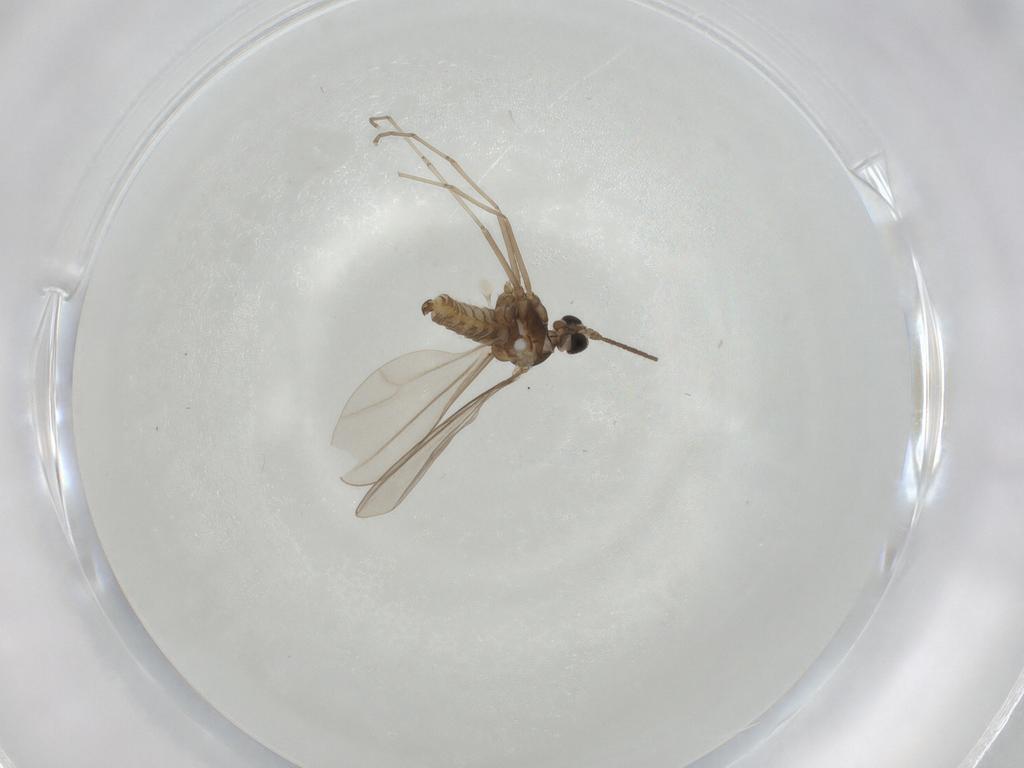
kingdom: Animalia
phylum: Arthropoda
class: Insecta
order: Diptera
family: Cecidomyiidae
